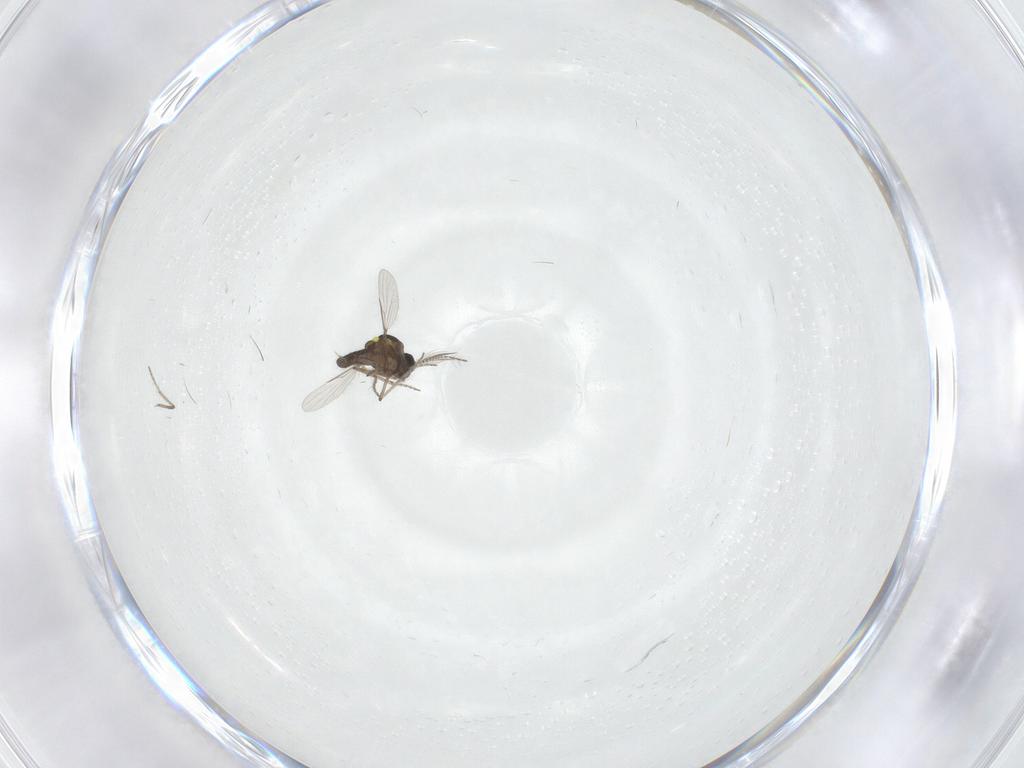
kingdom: Animalia
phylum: Arthropoda
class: Insecta
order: Diptera
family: Ceratopogonidae
